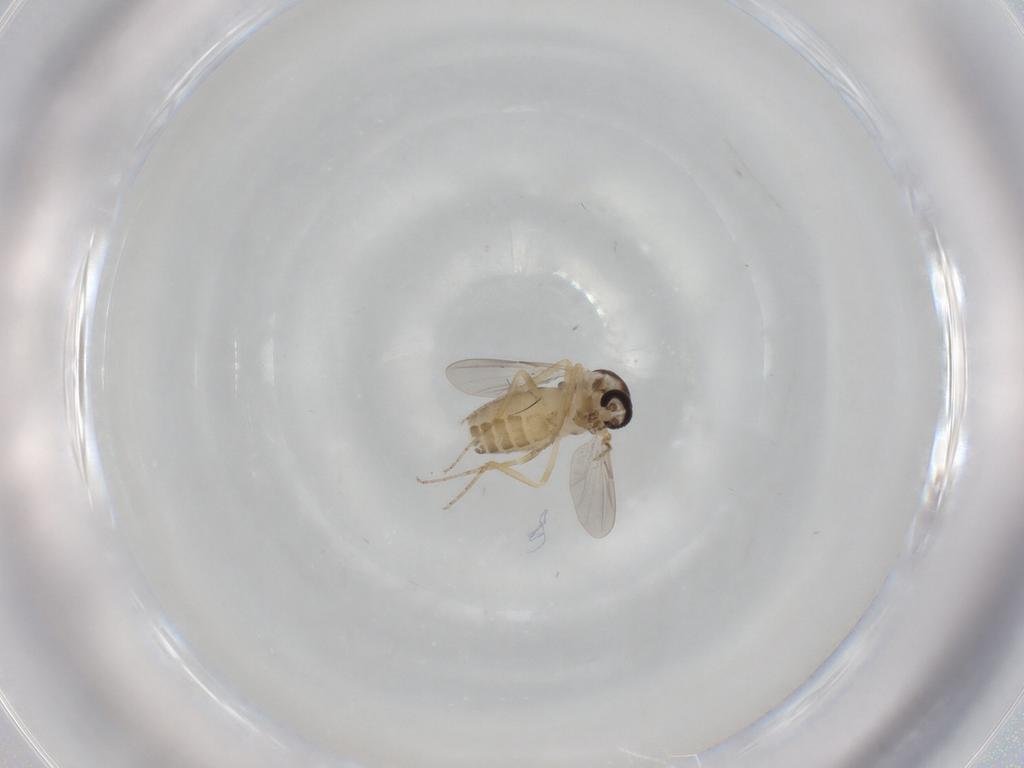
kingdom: Animalia
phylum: Arthropoda
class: Insecta
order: Diptera
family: Ceratopogonidae
